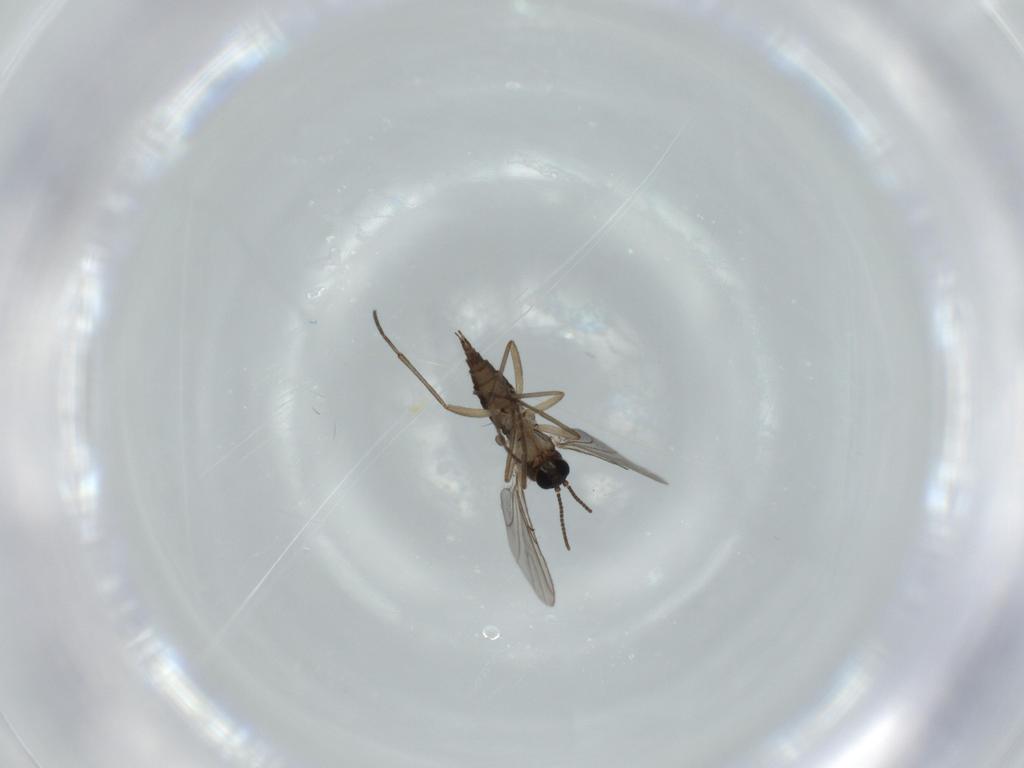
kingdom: Animalia
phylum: Arthropoda
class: Insecta
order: Diptera
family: Sciaridae
